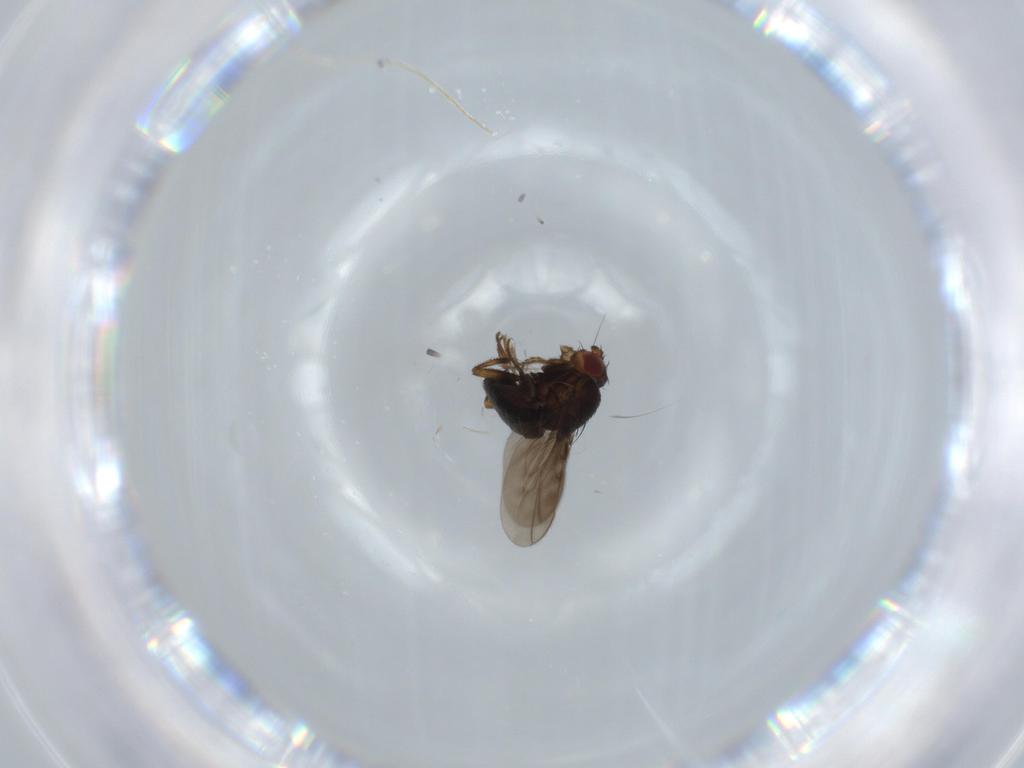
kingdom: Animalia
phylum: Arthropoda
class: Insecta
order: Diptera
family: Sphaeroceridae
